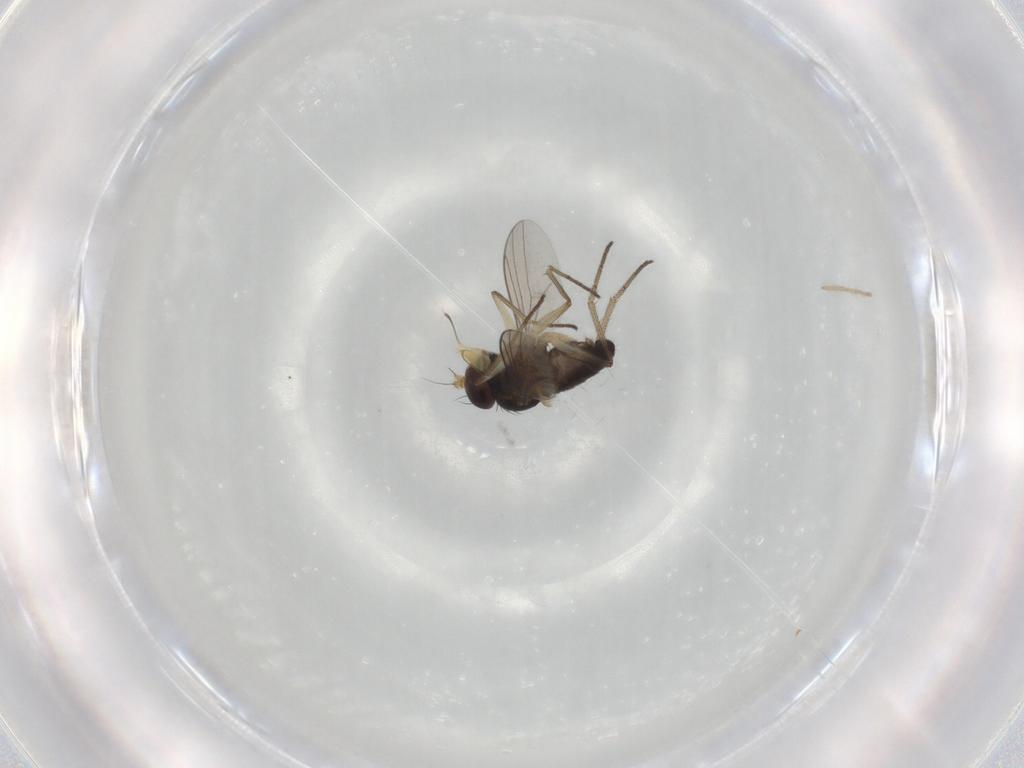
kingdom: Animalia
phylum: Arthropoda
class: Insecta
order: Diptera
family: Dolichopodidae
